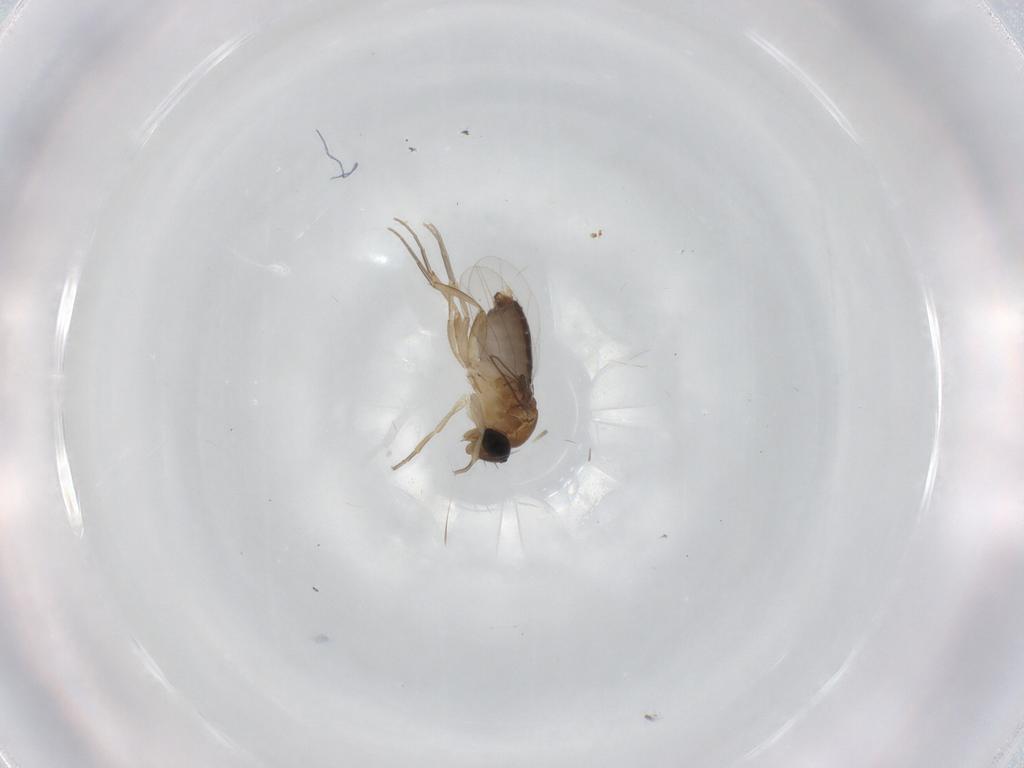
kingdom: Animalia
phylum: Arthropoda
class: Insecta
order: Diptera
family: Phoridae
